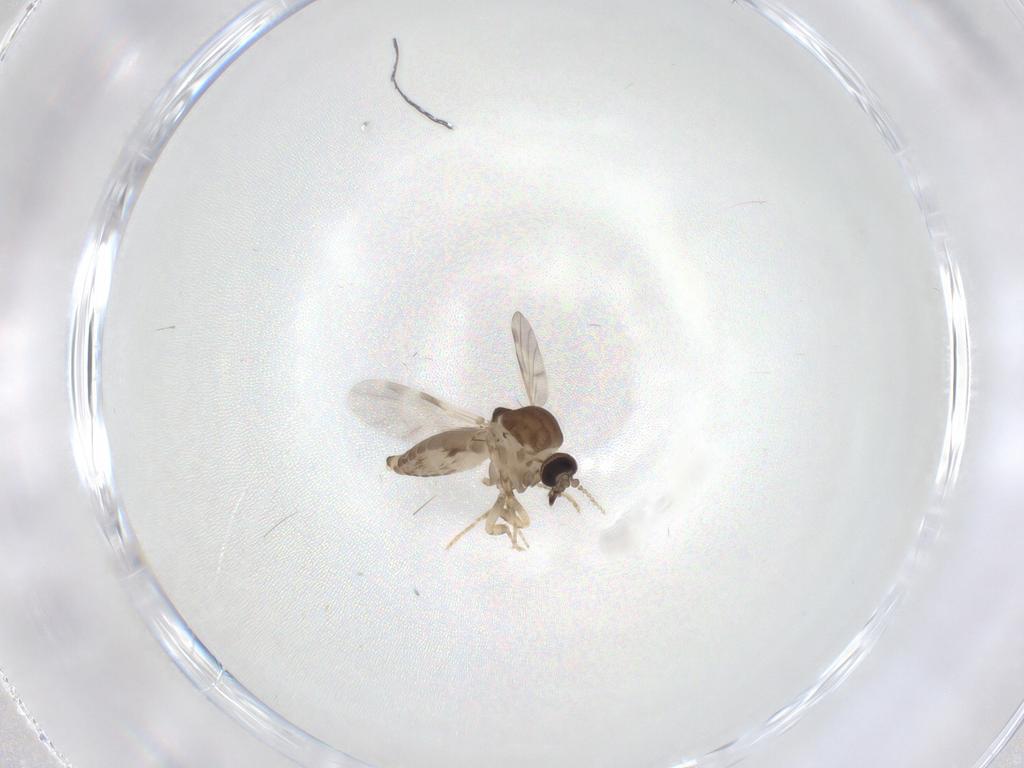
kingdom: Animalia
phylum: Arthropoda
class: Insecta
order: Diptera
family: Ceratopogonidae
